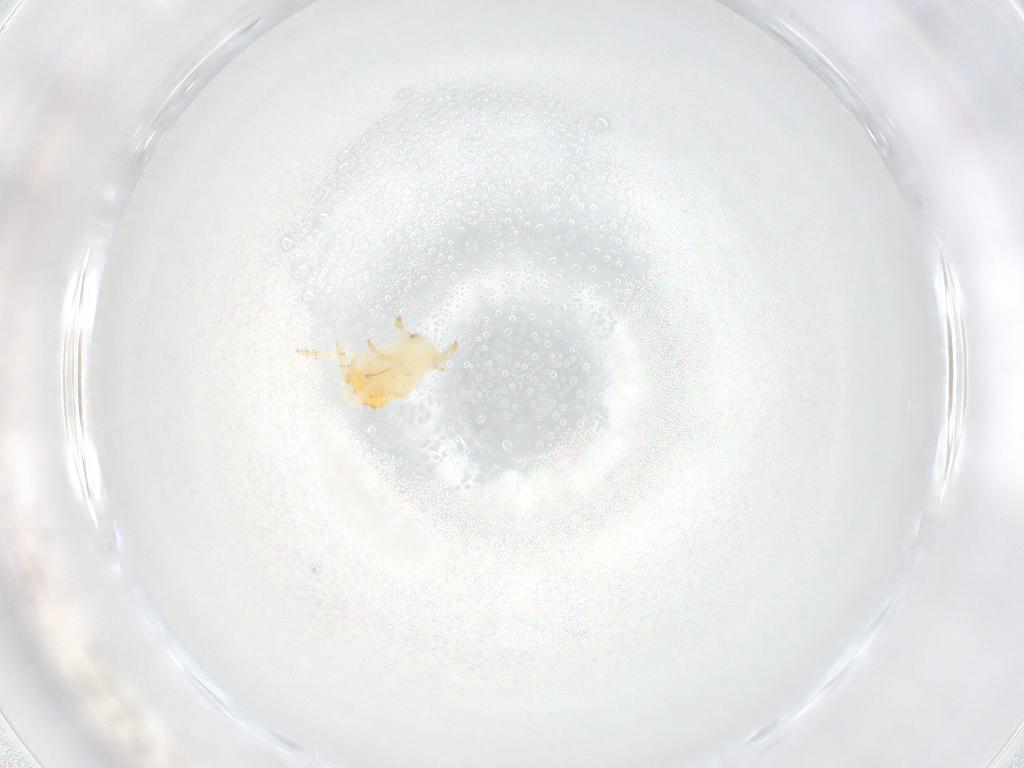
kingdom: Animalia
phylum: Arthropoda
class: Insecta
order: Hemiptera
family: Flatidae
